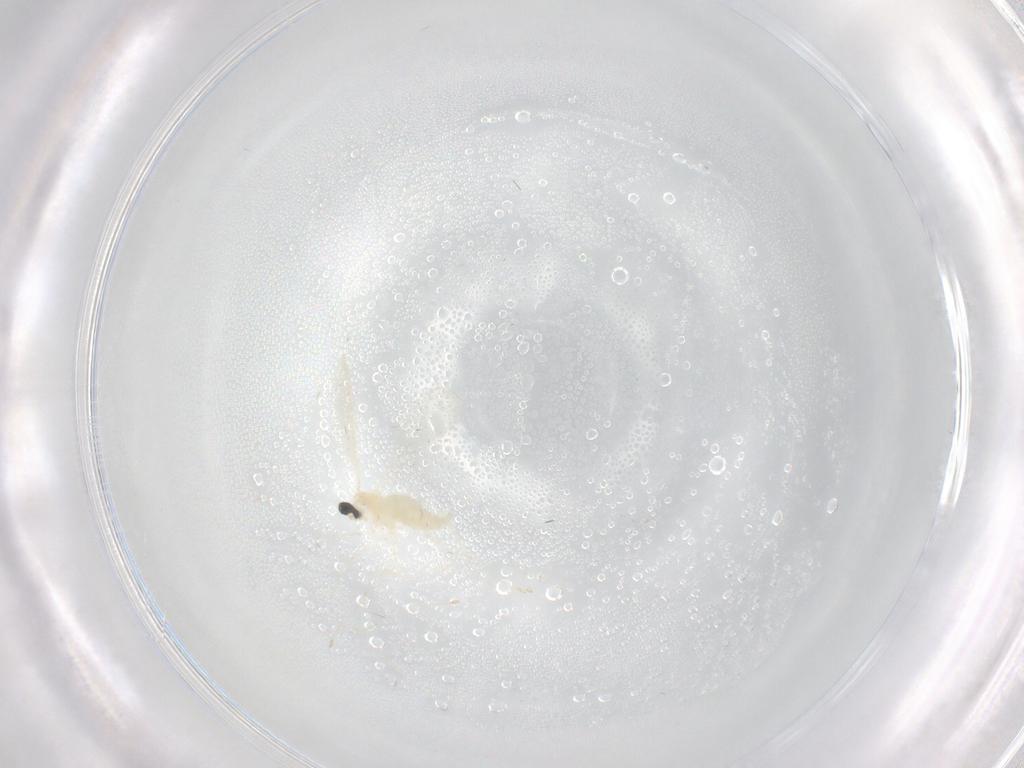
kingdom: Animalia
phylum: Arthropoda
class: Insecta
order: Diptera
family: Cecidomyiidae
